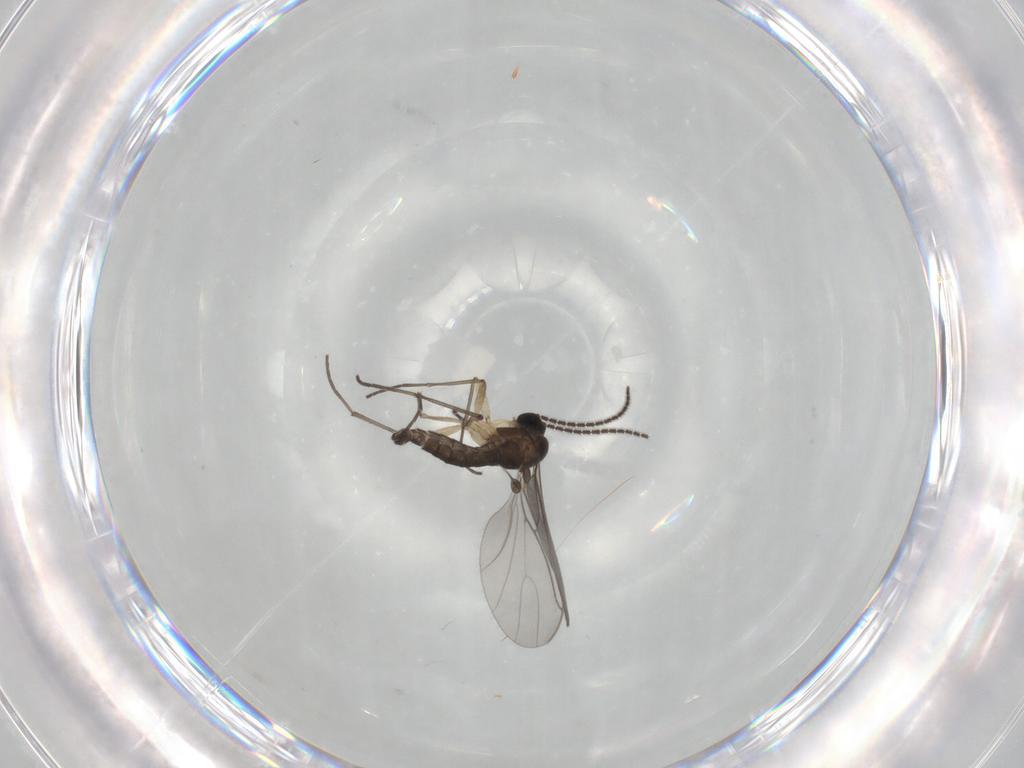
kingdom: Animalia
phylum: Arthropoda
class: Insecta
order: Diptera
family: Sciaridae
